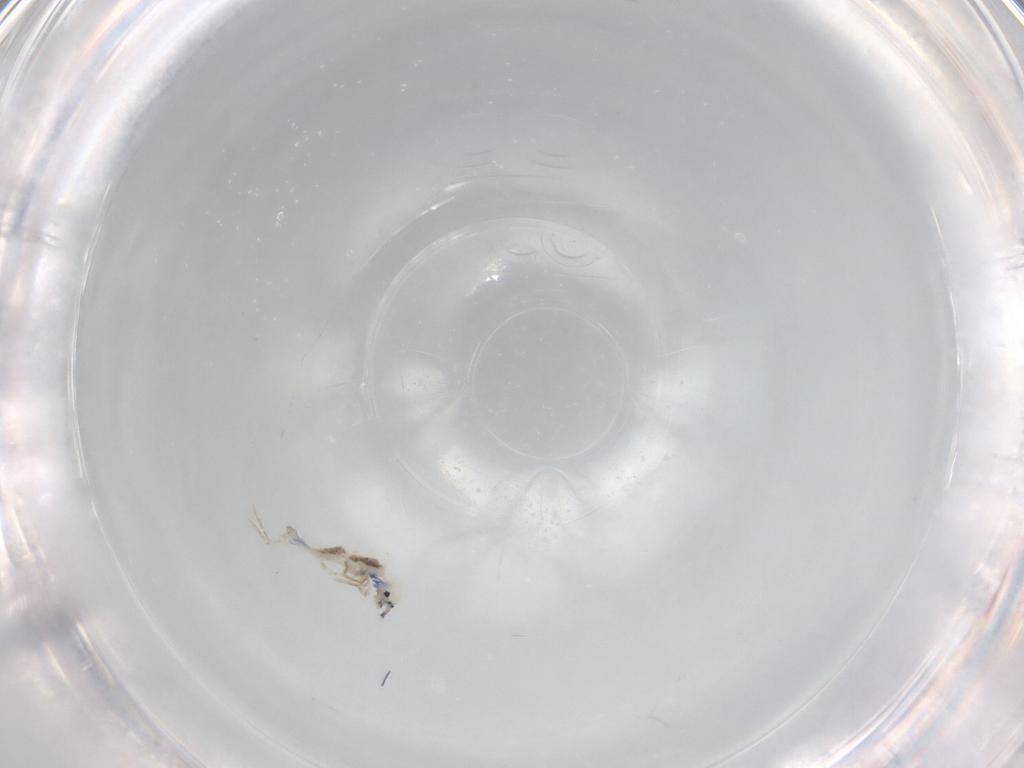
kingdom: Animalia
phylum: Arthropoda
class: Collembola
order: Entomobryomorpha
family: Entomobryidae
